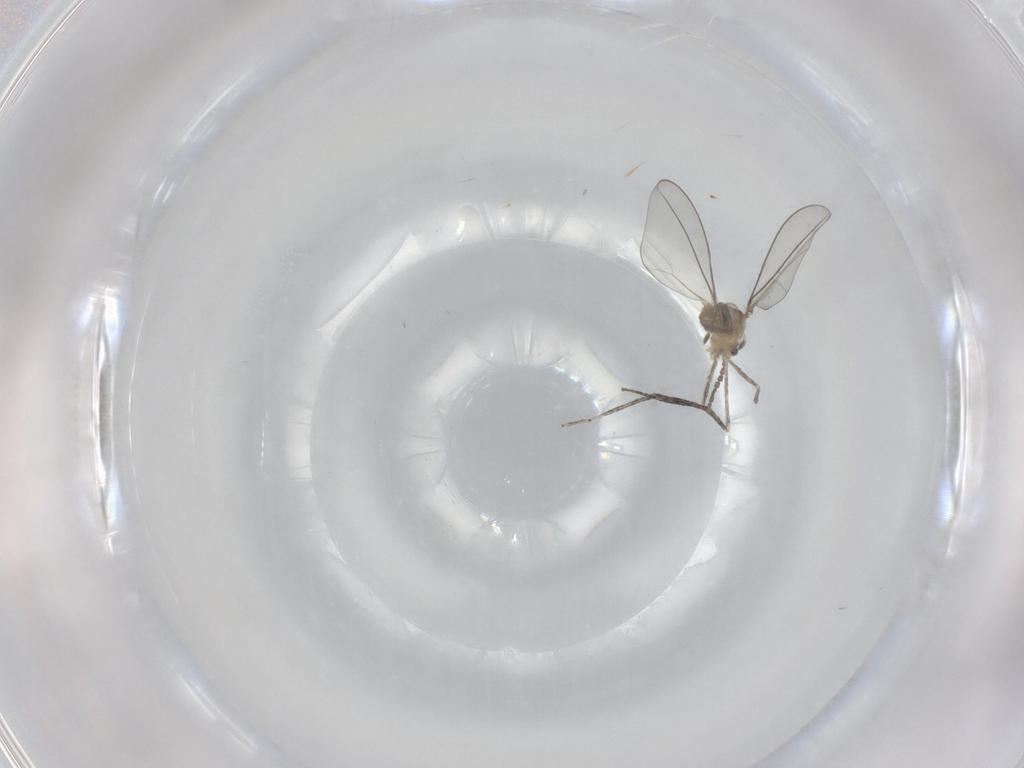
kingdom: Animalia
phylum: Arthropoda
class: Insecta
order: Diptera
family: Cecidomyiidae
